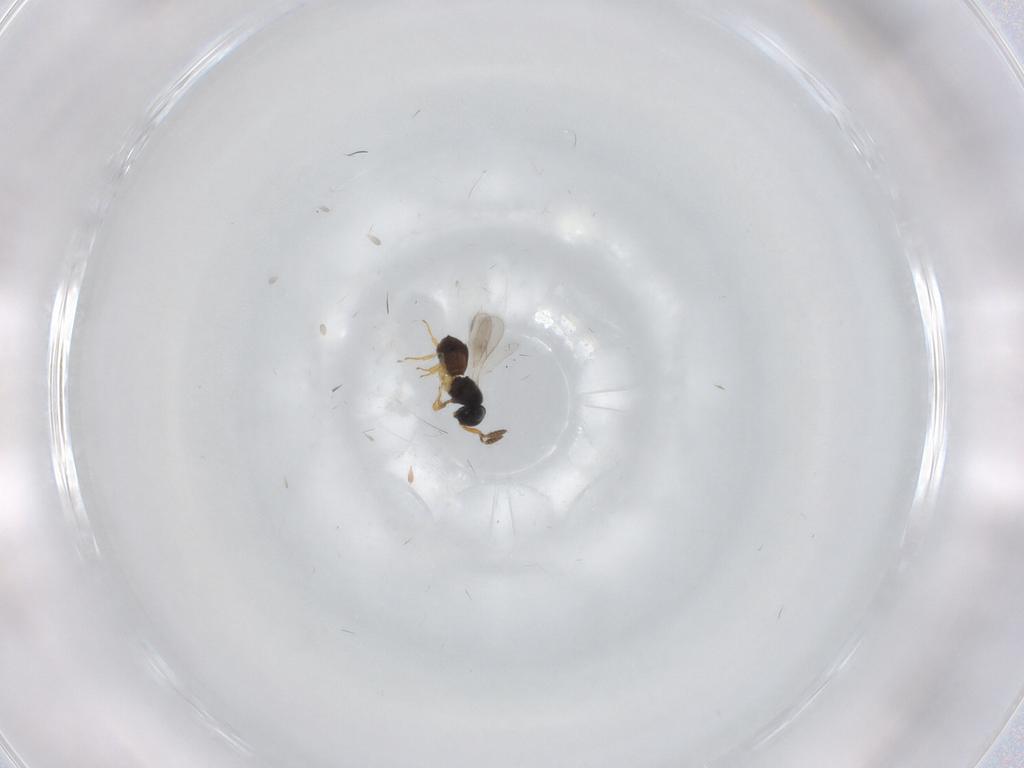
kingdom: Animalia
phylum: Arthropoda
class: Insecta
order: Hymenoptera
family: Scelionidae
